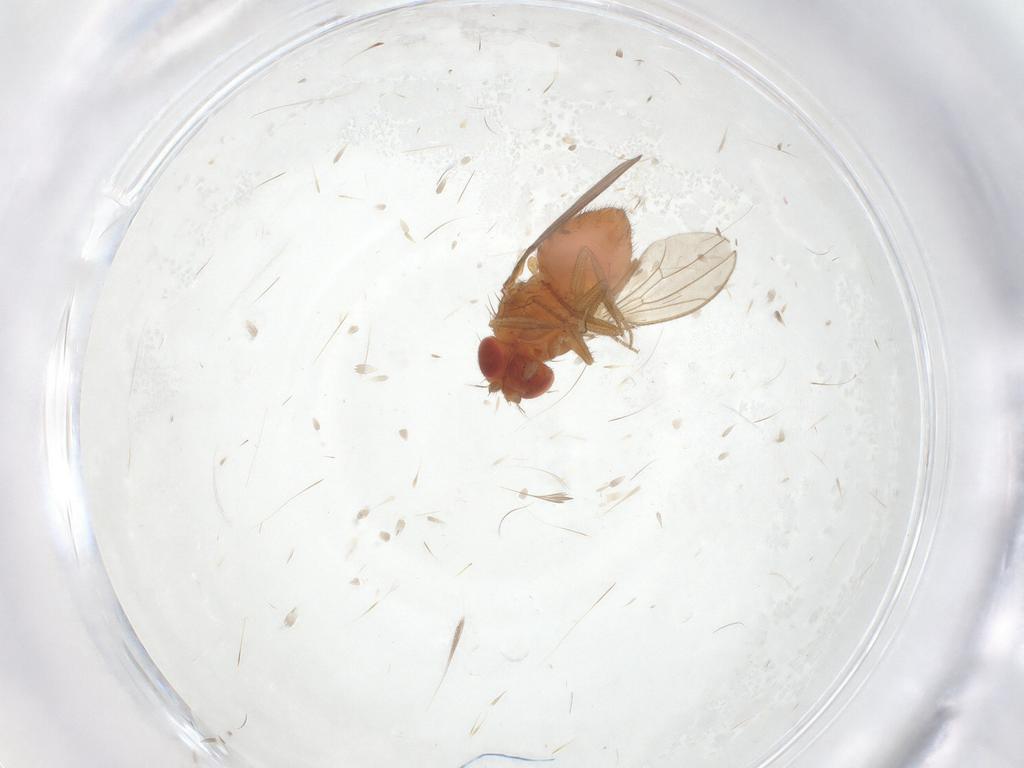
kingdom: Animalia
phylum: Arthropoda
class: Insecta
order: Diptera
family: Drosophilidae
